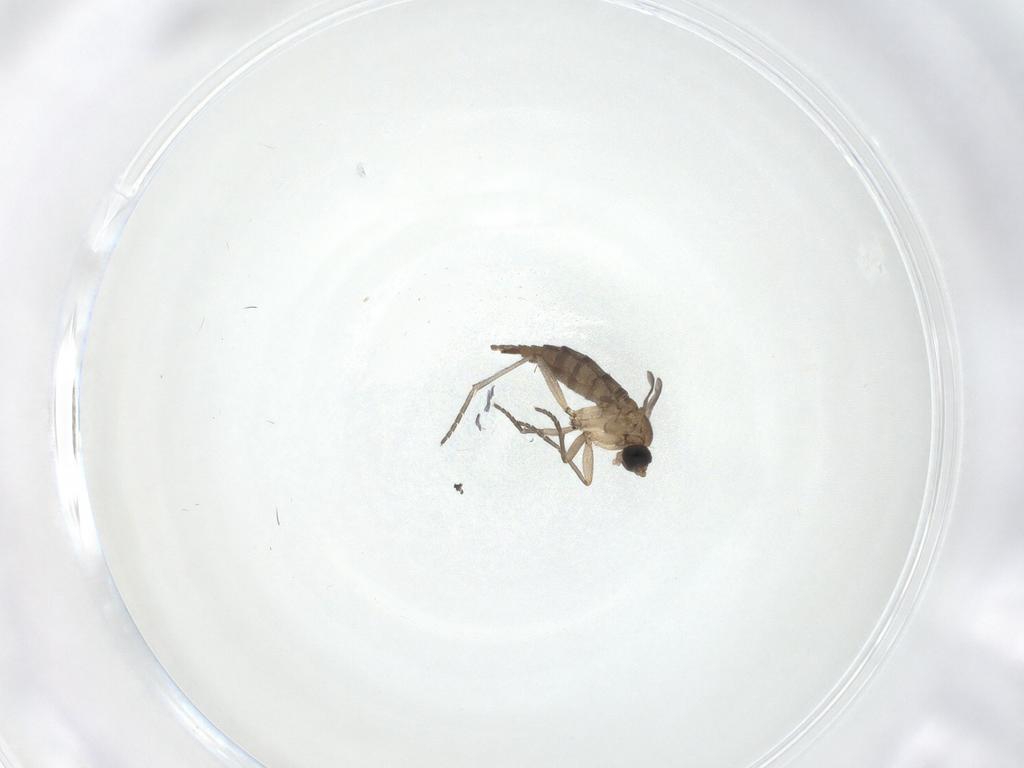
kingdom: Animalia
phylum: Arthropoda
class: Insecta
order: Diptera
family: Sciaridae
